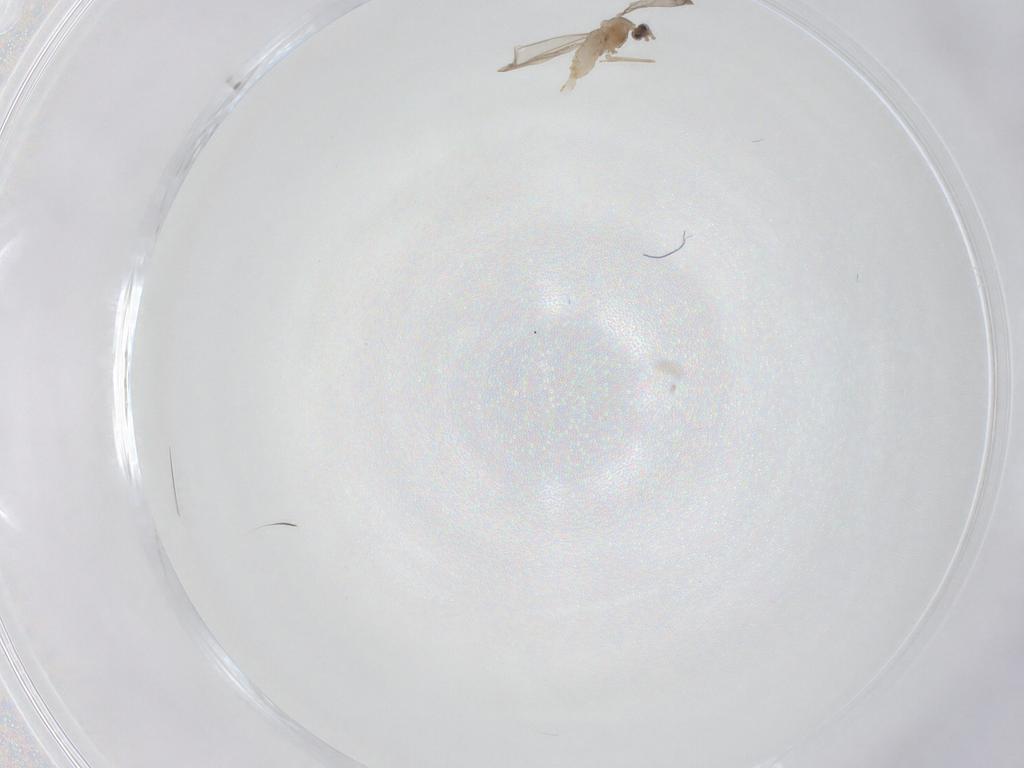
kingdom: Animalia
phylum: Arthropoda
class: Insecta
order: Diptera
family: Cecidomyiidae
